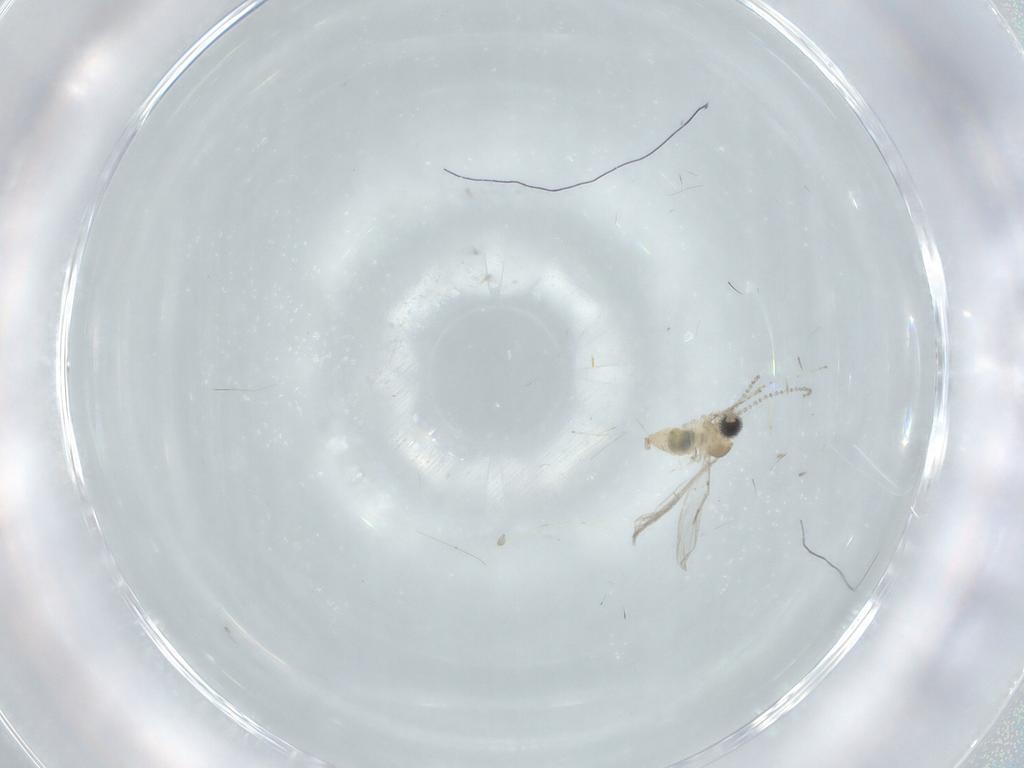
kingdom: Animalia
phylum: Arthropoda
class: Insecta
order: Diptera
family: Cecidomyiidae
